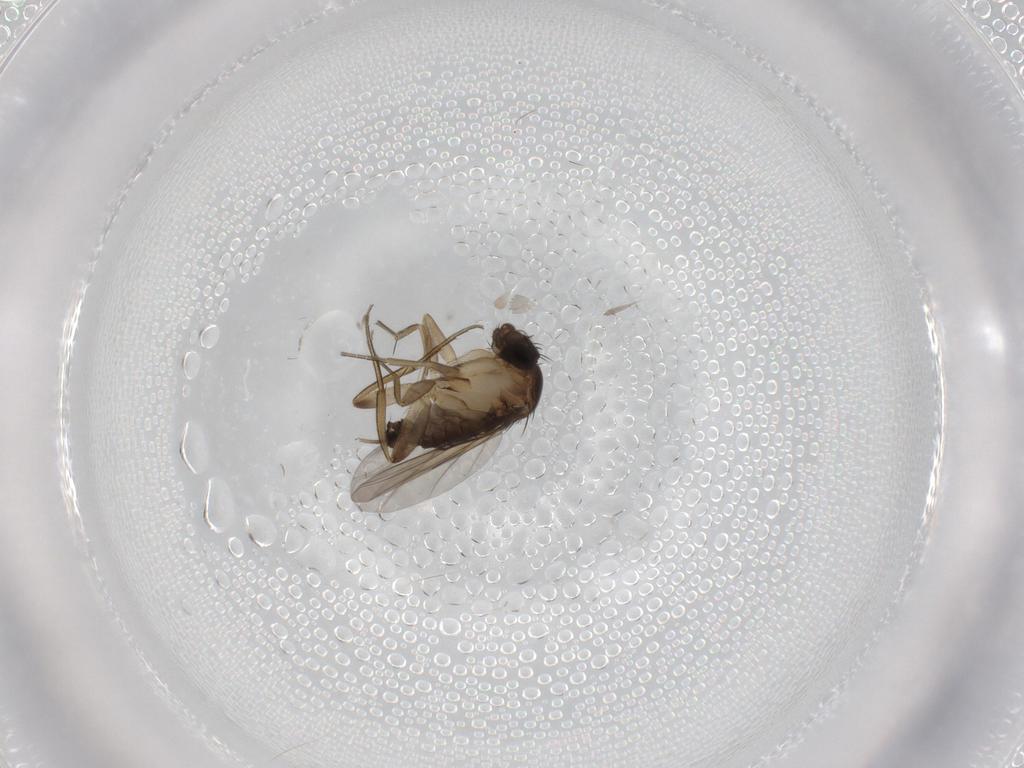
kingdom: Animalia
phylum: Arthropoda
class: Insecta
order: Diptera
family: Phoridae
